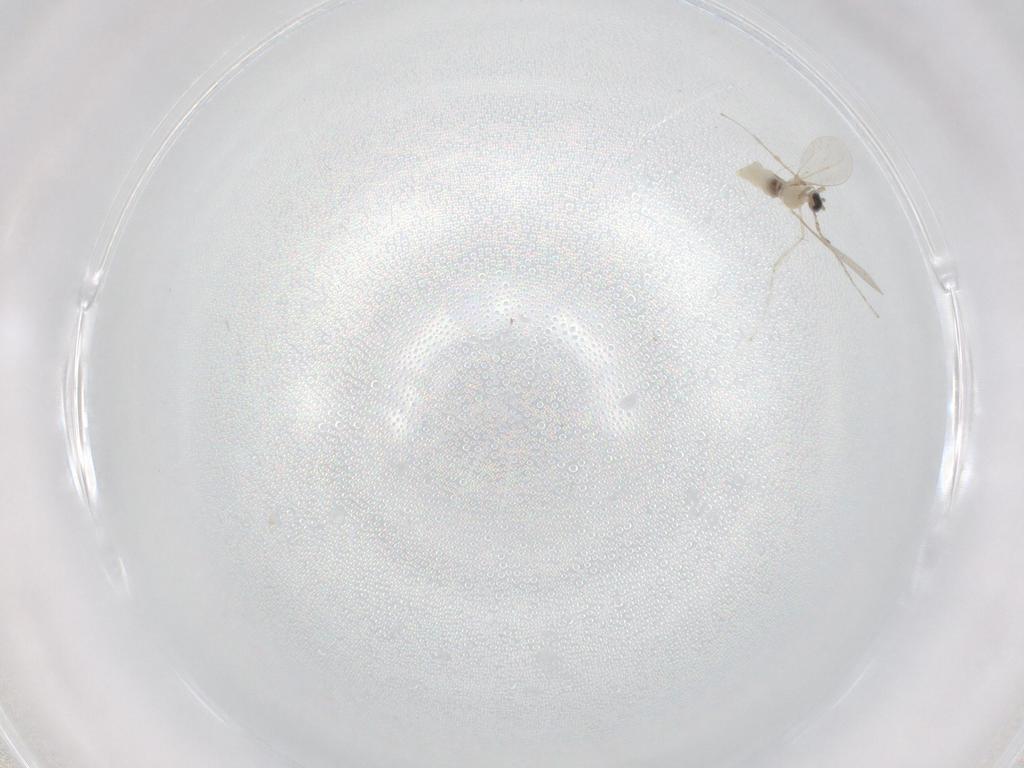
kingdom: Animalia
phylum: Arthropoda
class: Insecta
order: Diptera
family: Cecidomyiidae
